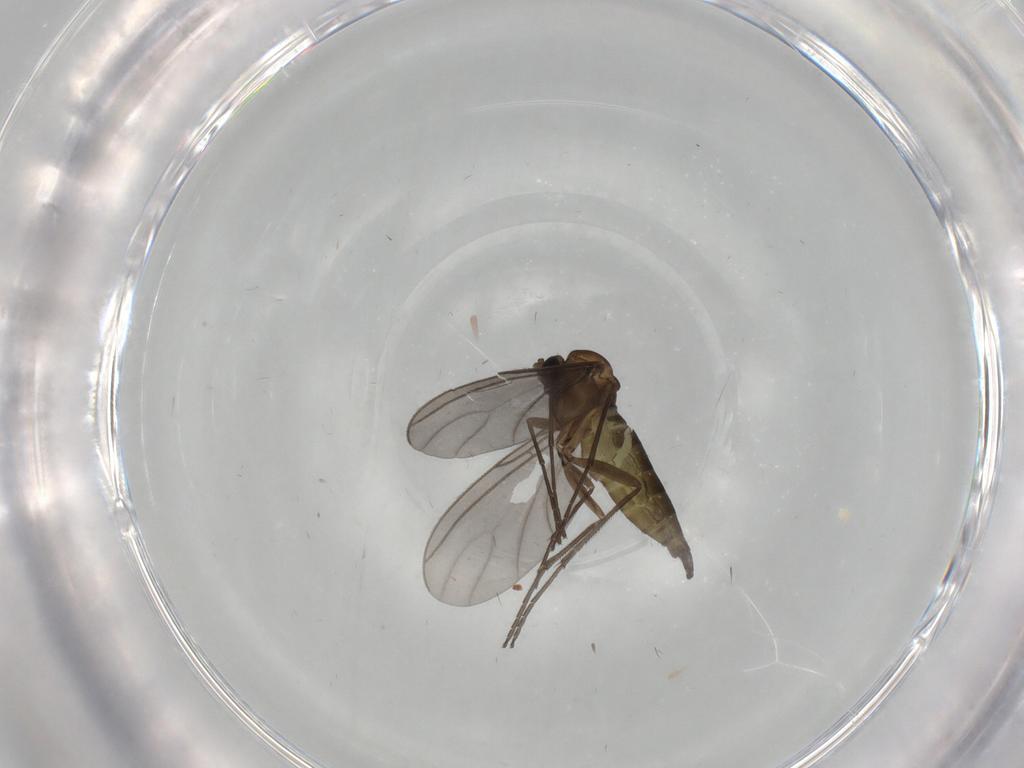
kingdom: Animalia
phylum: Arthropoda
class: Insecta
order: Diptera
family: Sciaridae
